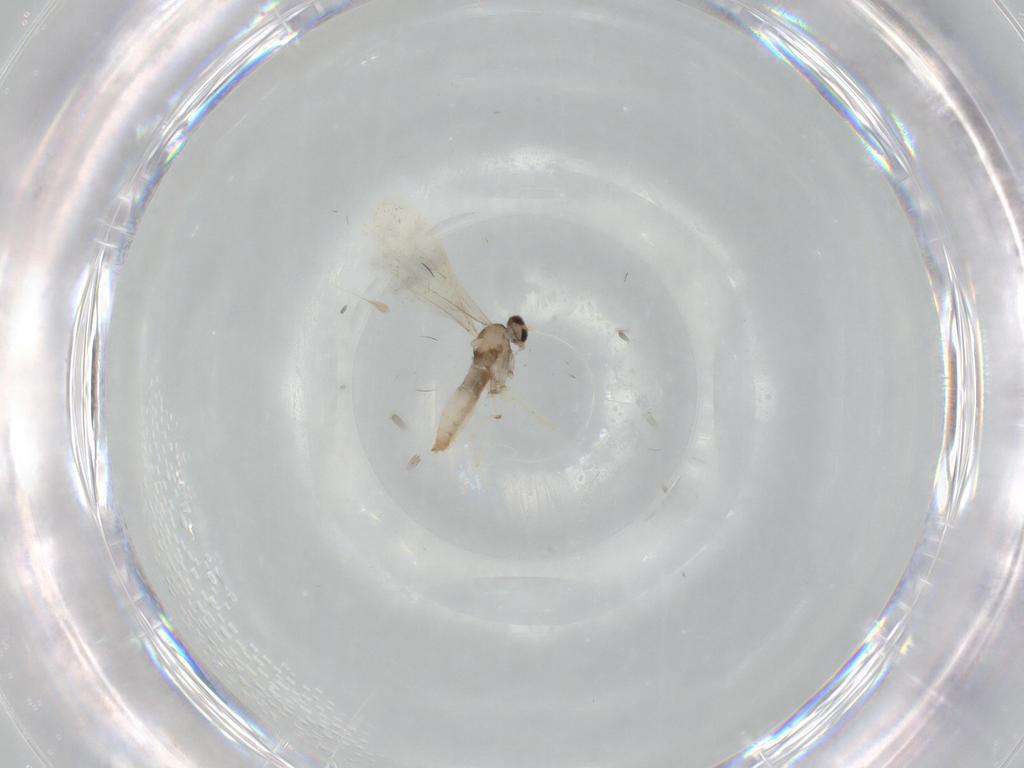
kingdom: Animalia
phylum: Arthropoda
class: Insecta
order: Diptera
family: Cecidomyiidae
